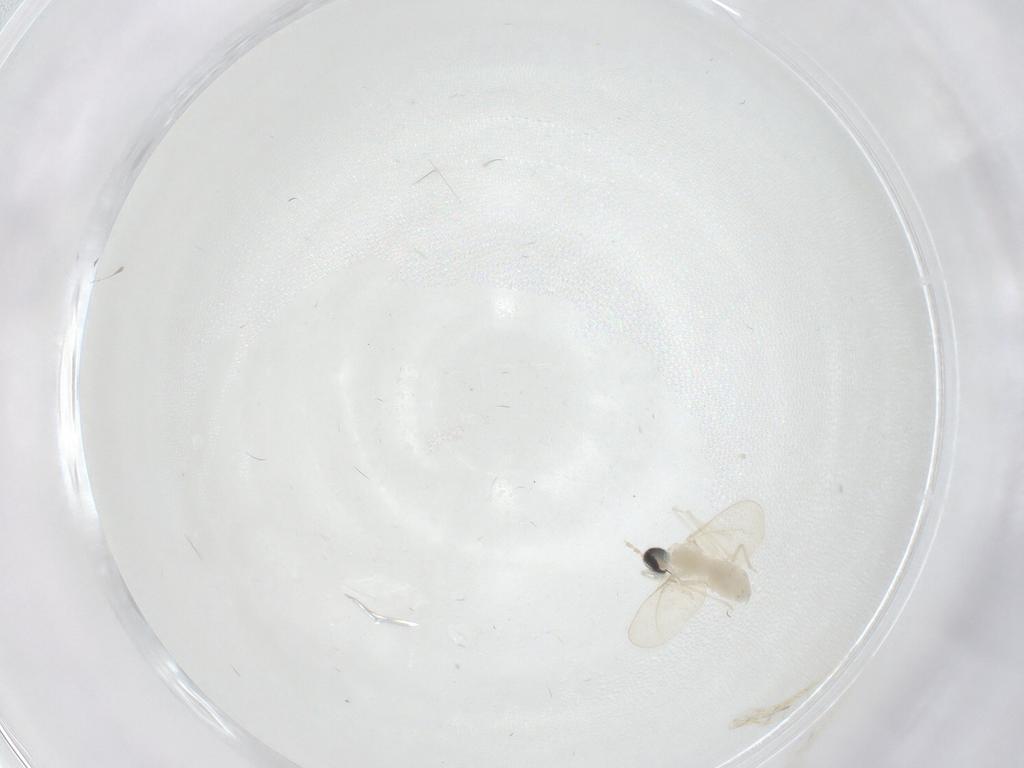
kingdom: Animalia
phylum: Arthropoda
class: Insecta
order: Diptera
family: Cecidomyiidae
